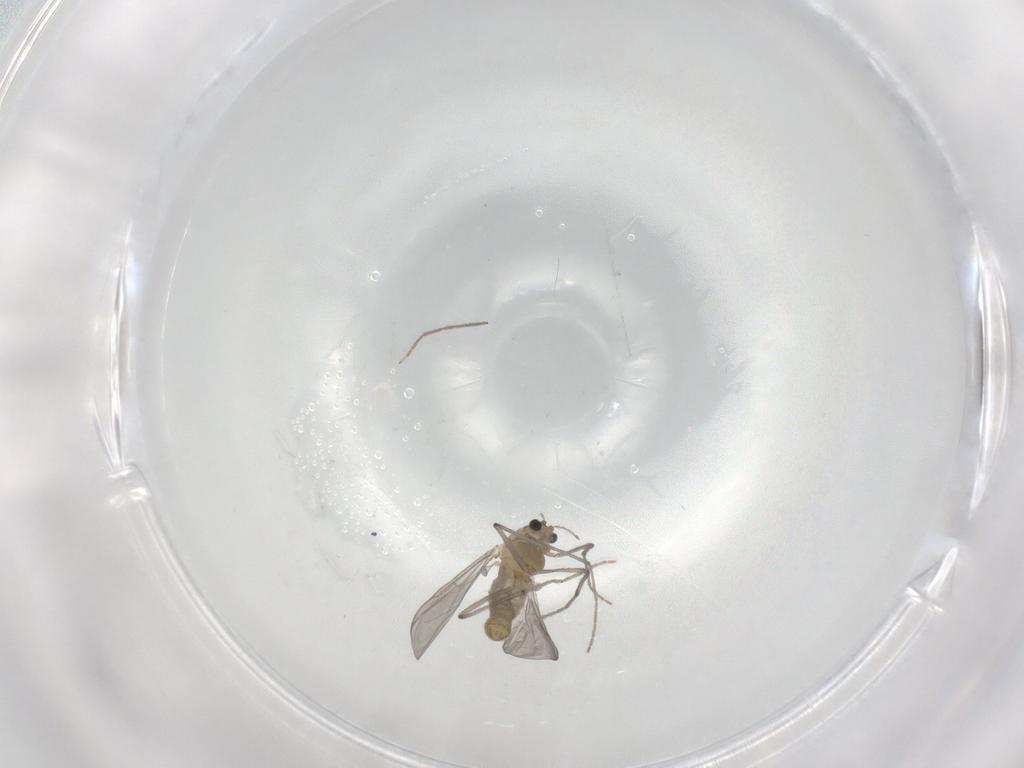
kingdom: Animalia
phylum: Arthropoda
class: Insecta
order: Diptera
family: Chironomidae
